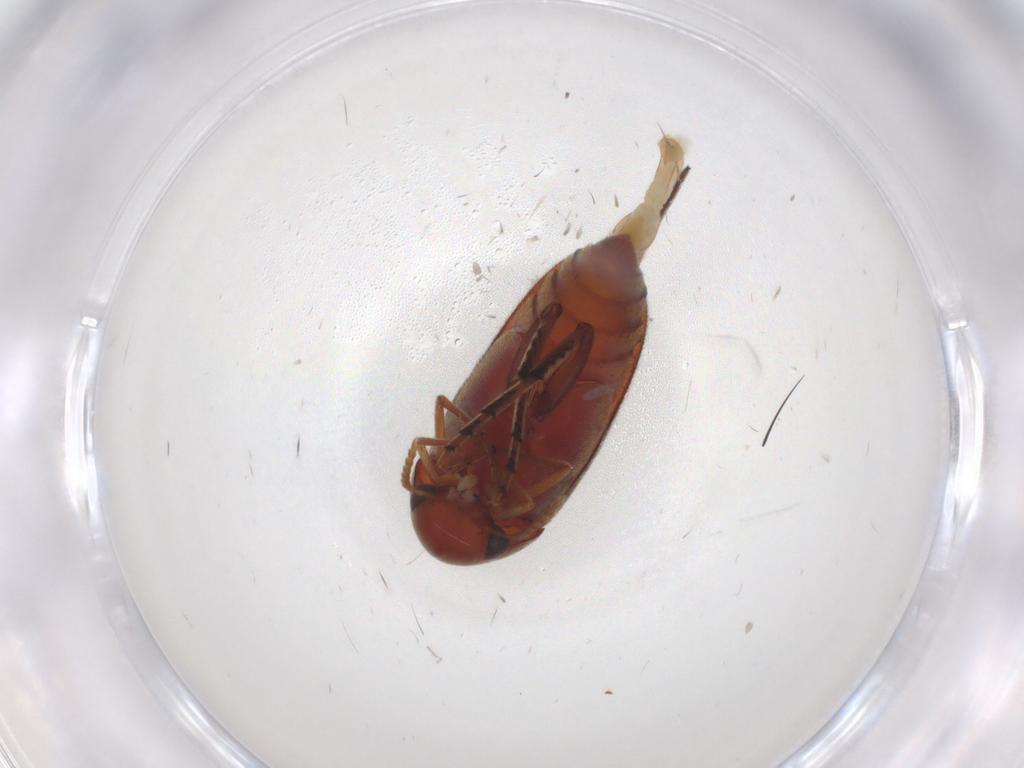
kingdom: Animalia
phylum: Arthropoda
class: Insecta
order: Coleoptera
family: Mordellidae
